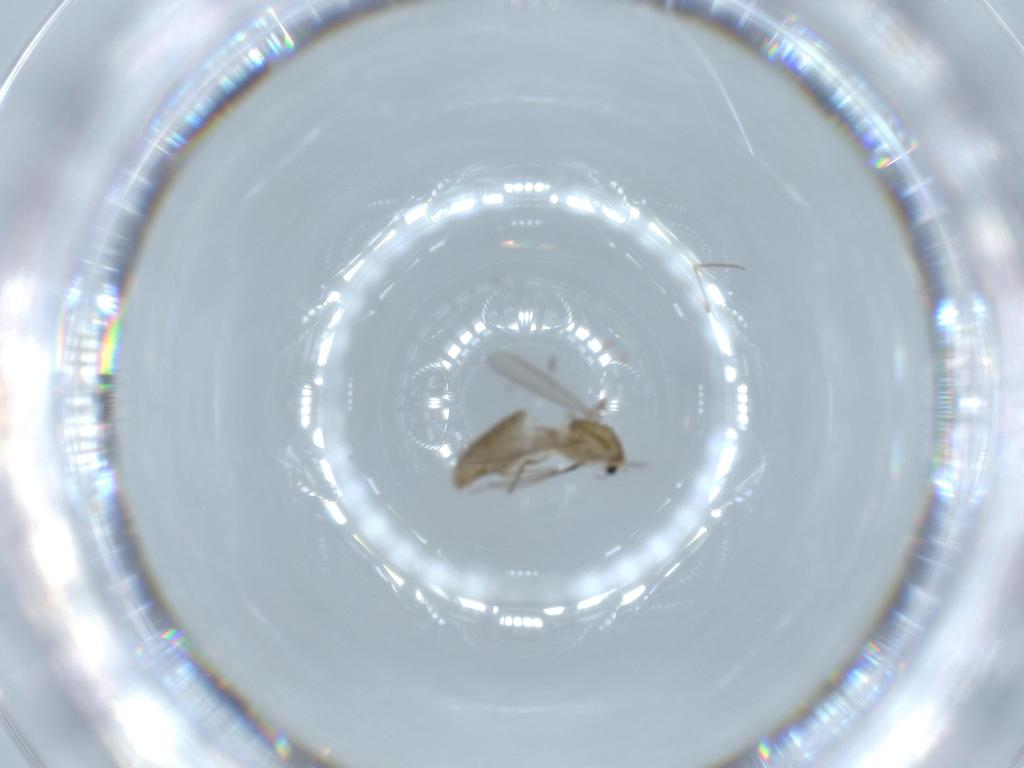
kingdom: Animalia
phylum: Arthropoda
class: Insecta
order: Diptera
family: Chironomidae
